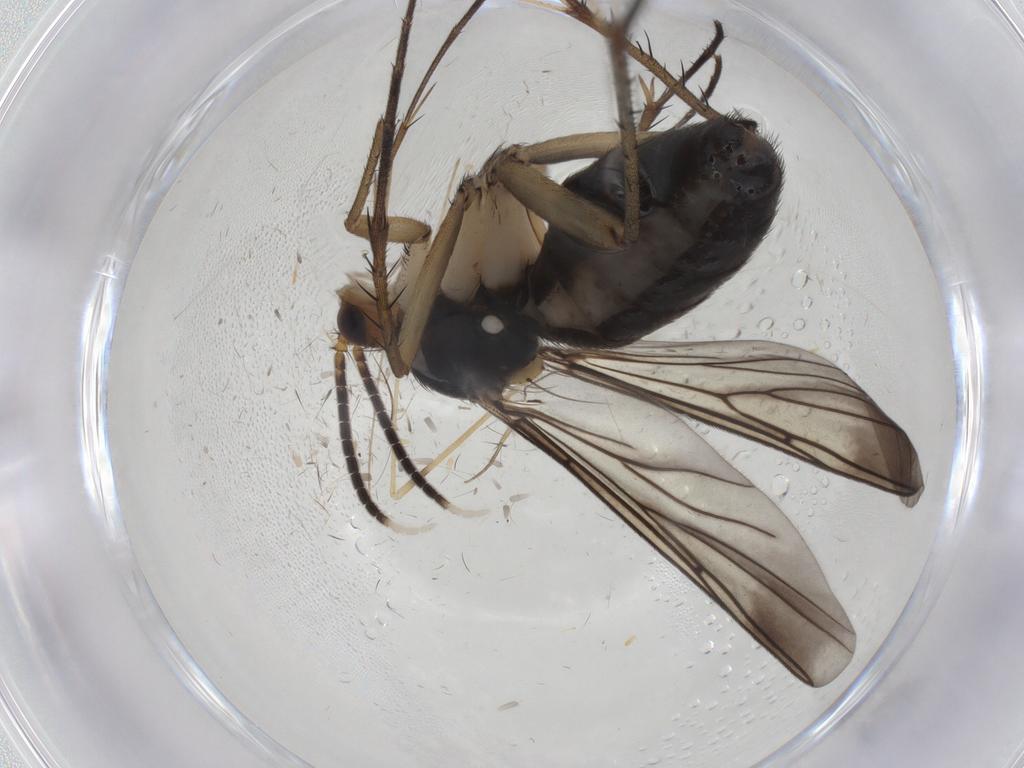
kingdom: Animalia
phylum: Arthropoda
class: Insecta
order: Diptera
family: Mycetophilidae
